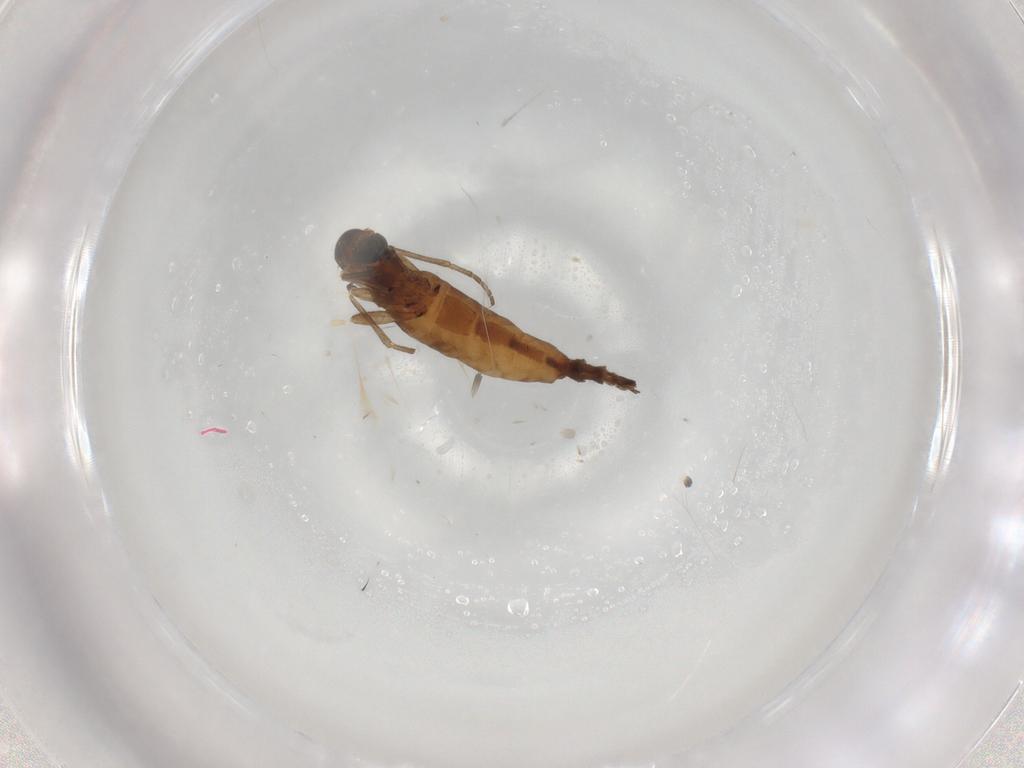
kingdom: Animalia
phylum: Arthropoda
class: Insecta
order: Diptera
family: Sciaridae
